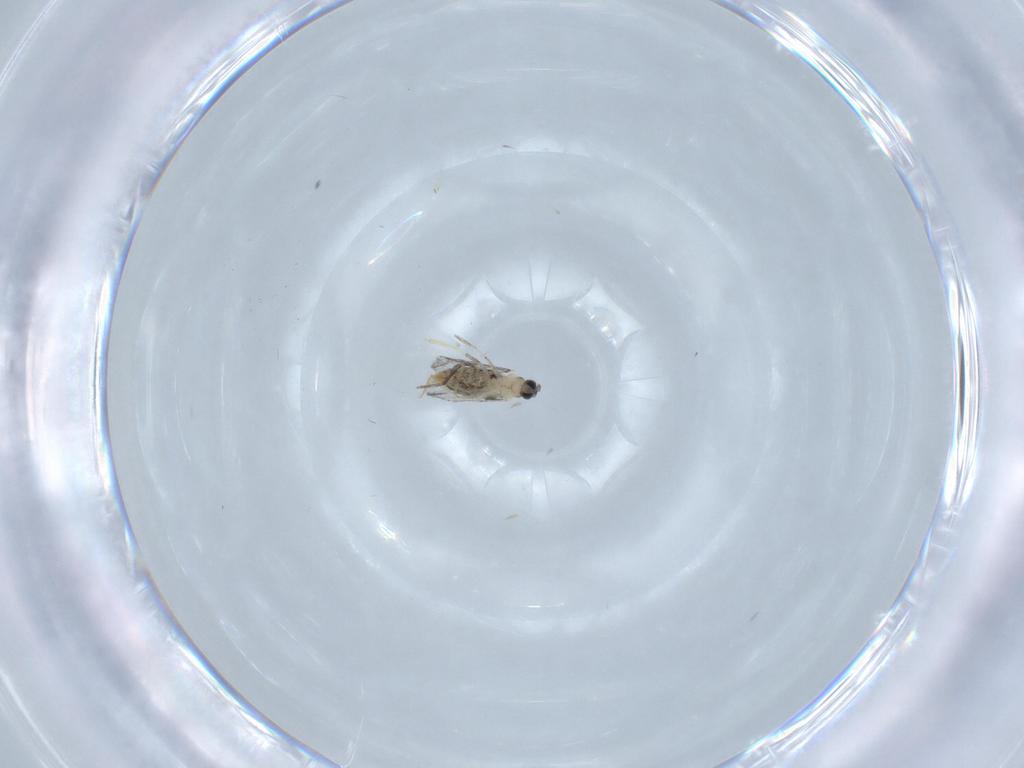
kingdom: Animalia
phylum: Arthropoda
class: Insecta
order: Diptera
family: Cecidomyiidae
